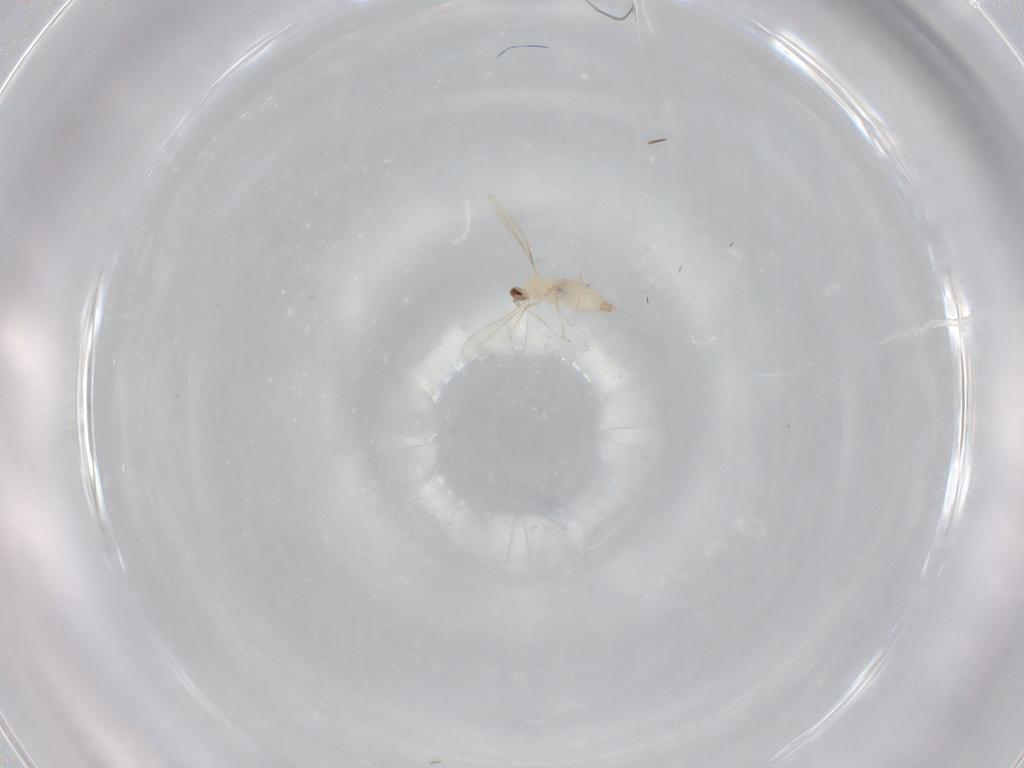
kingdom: Animalia
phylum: Arthropoda
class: Insecta
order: Diptera
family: Cecidomyiidae
